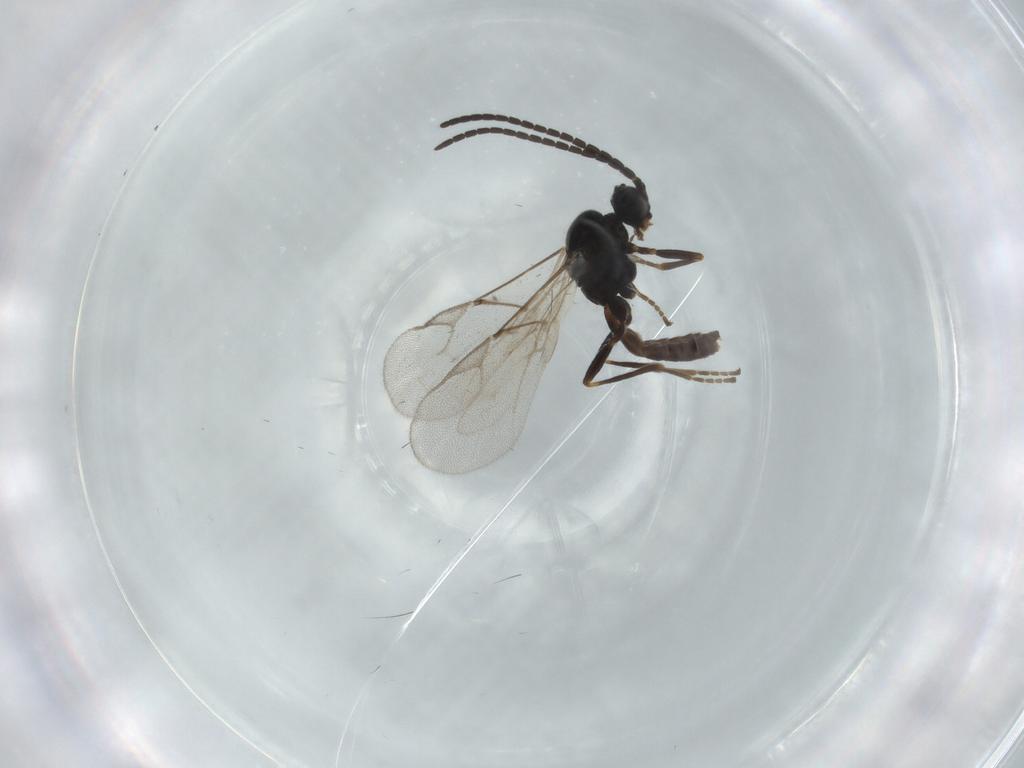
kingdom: Animalia
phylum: Arthropoda
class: Insecta
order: Hymenoptera
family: Braconidae
